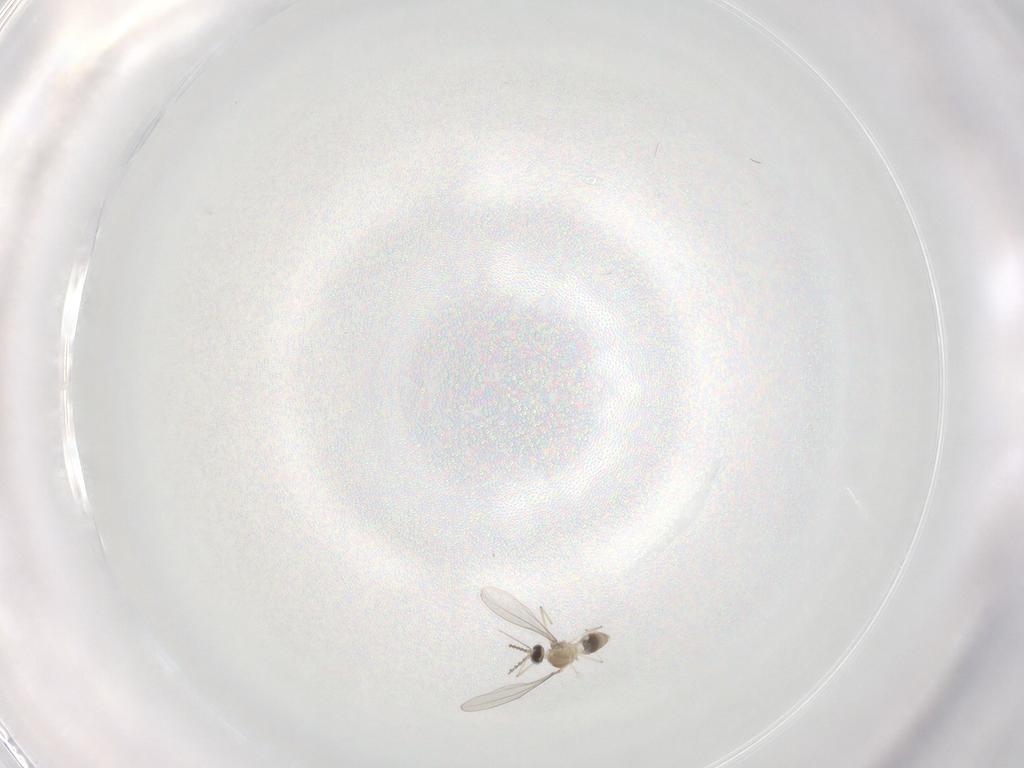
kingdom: Animalia
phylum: Arthropoda
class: Insecta
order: Diptera
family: Cecidomyiidae
